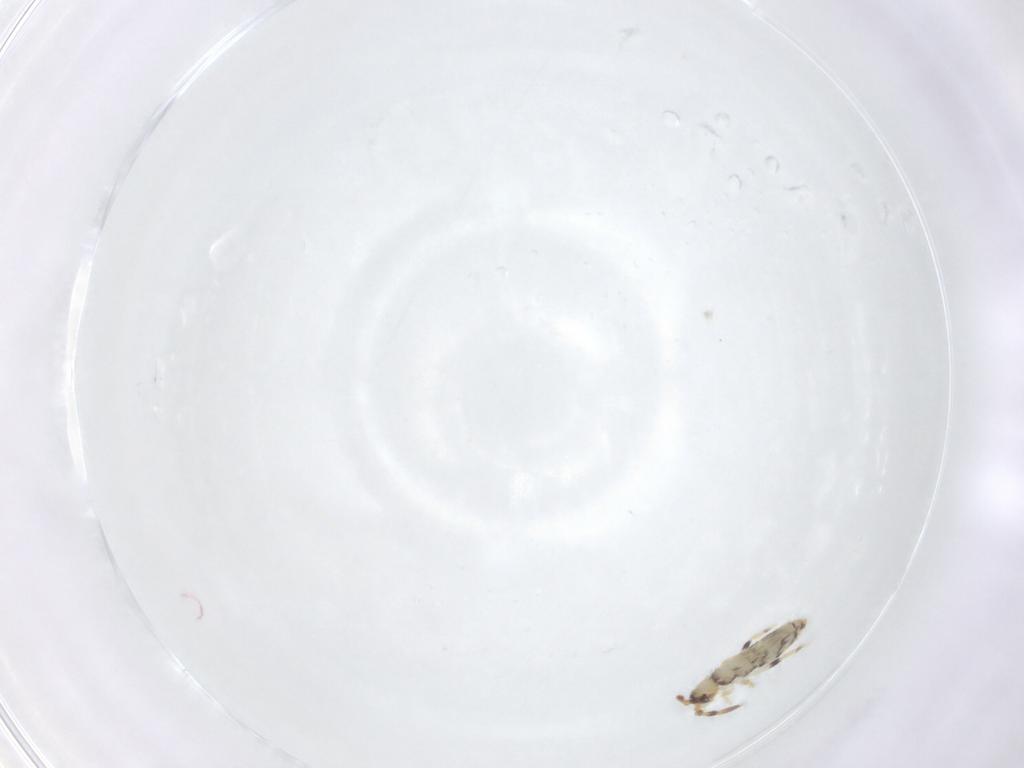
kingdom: Animalia
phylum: Arthropoda
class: Collembola
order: Entomobryomorpha
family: Isotomidae
